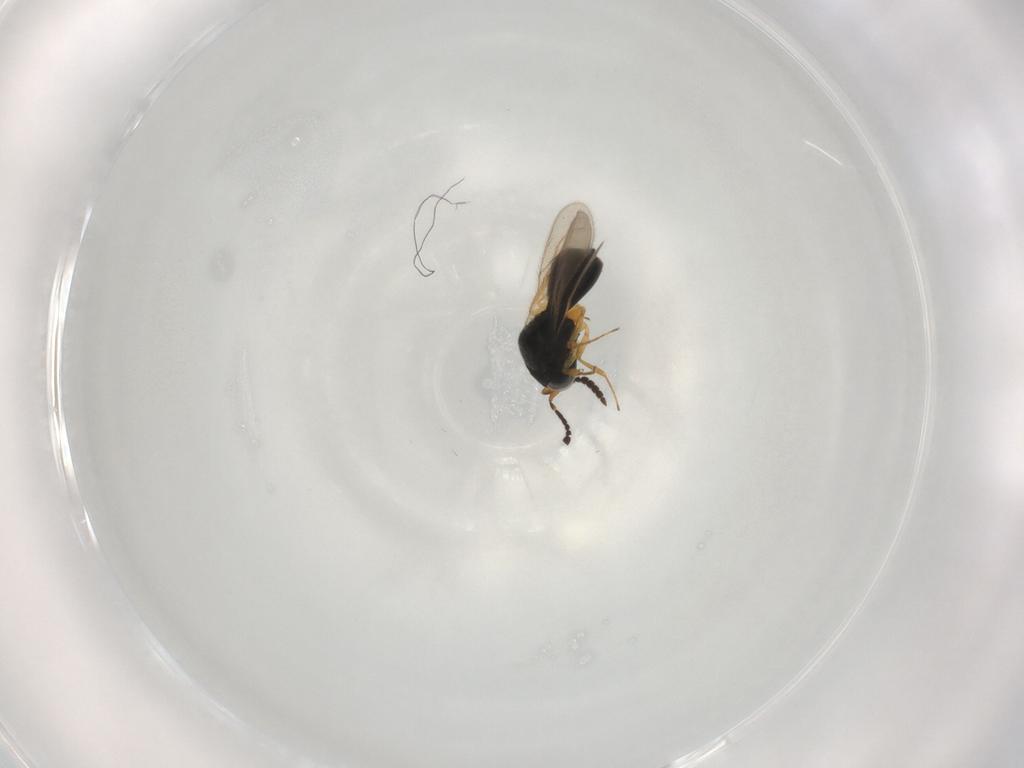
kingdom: Animalia
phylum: Arthropoda
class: Insecta
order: Hymenoptera
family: Scelionidae
